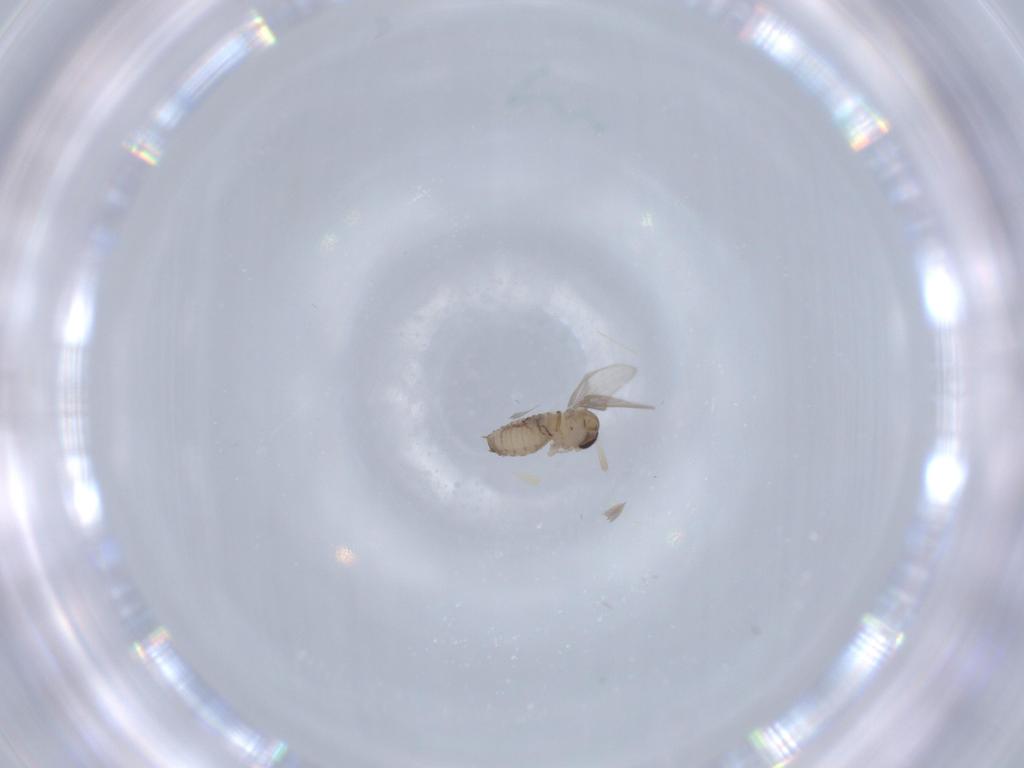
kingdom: Animalia
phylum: Arthropoda
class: Insecta
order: Diptera
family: Psychodidae
